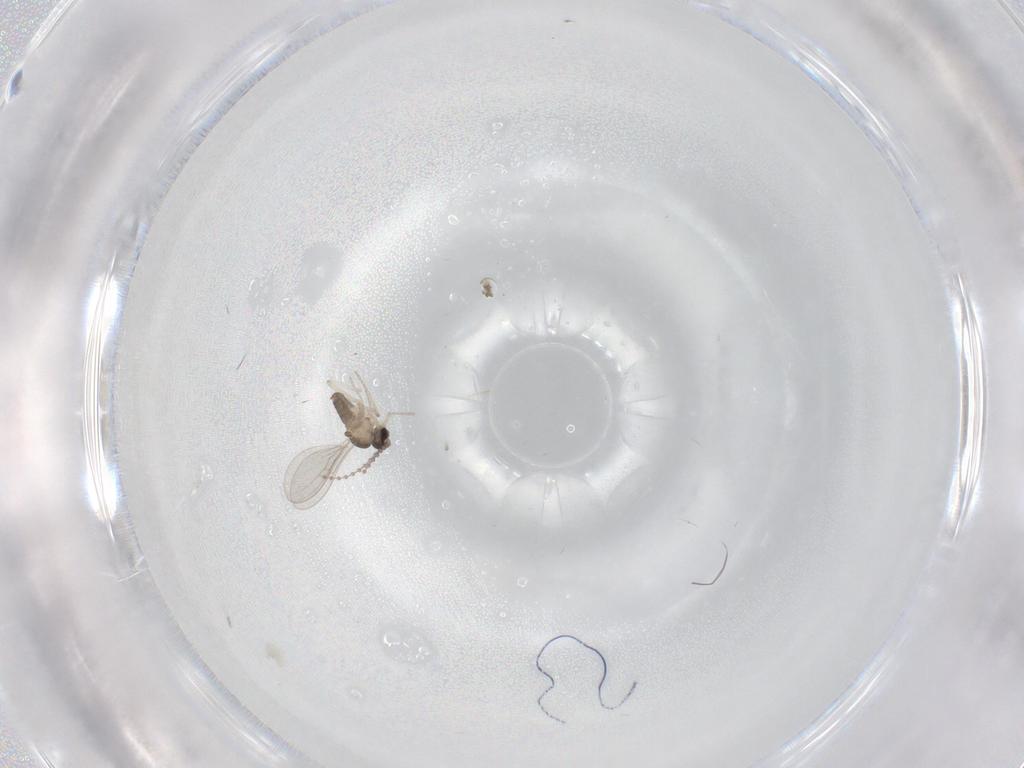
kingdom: Animalia
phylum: Arthropoda
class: Insecta
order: Diptera
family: Cecidomyiidae
